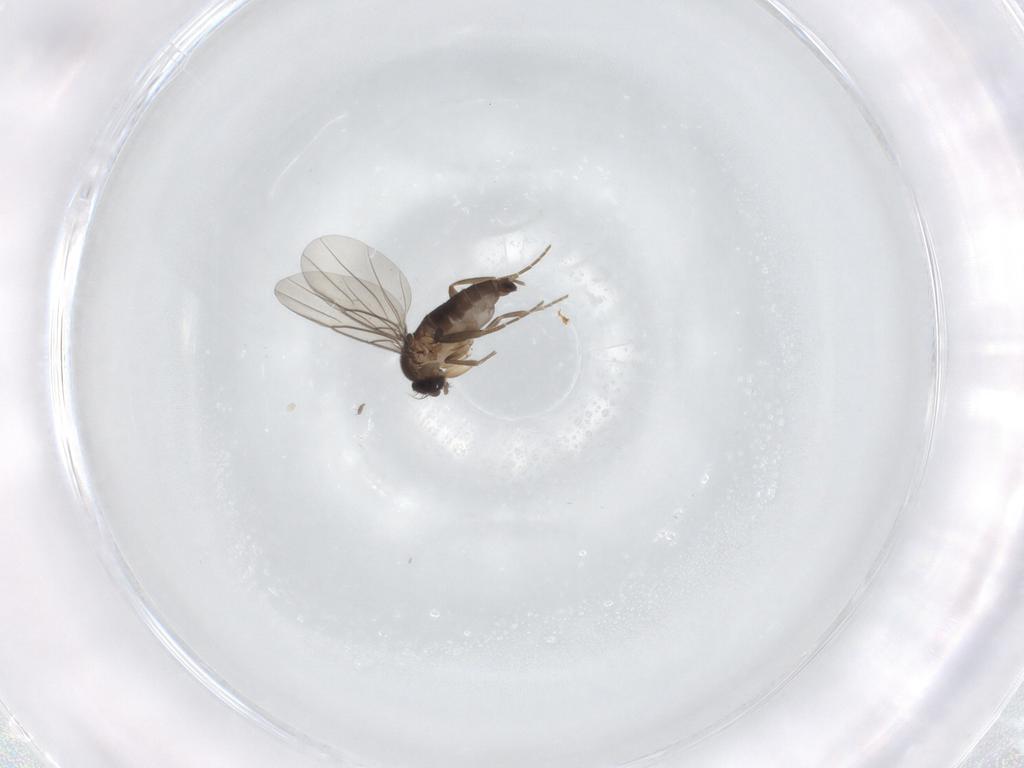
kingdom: Animalia
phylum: Arthropoda
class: Insecta
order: Diptera
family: Phoridae
